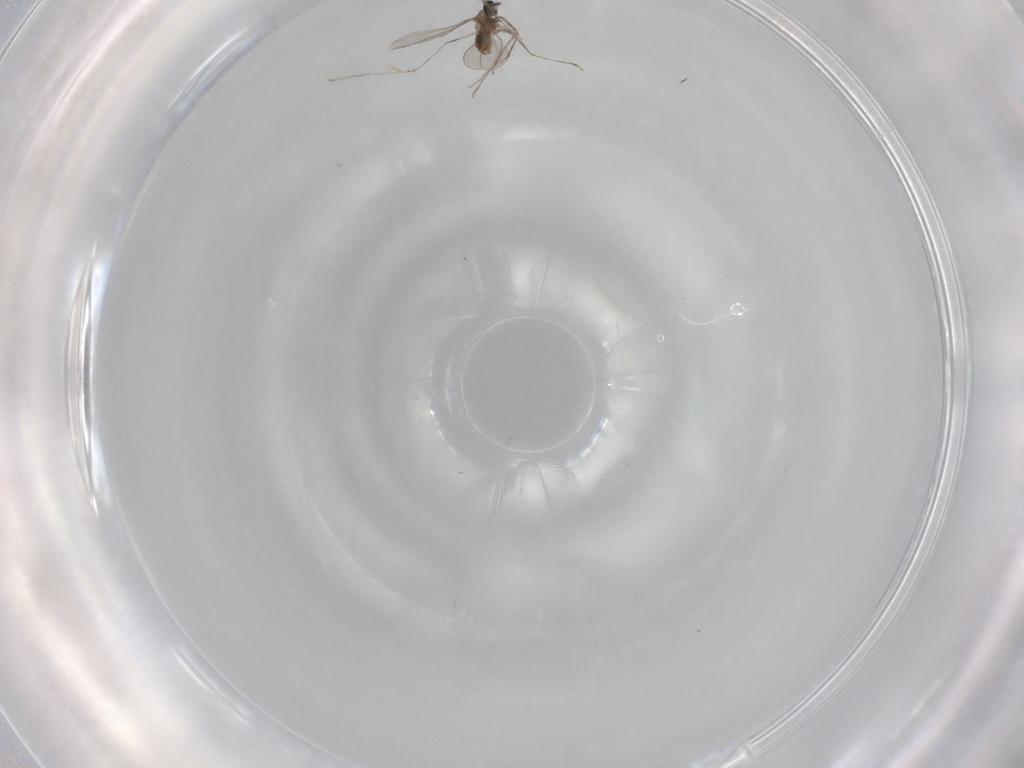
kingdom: Animalia
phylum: Arthropoda
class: Insecta
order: Diptera
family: Cecidomyiidae
